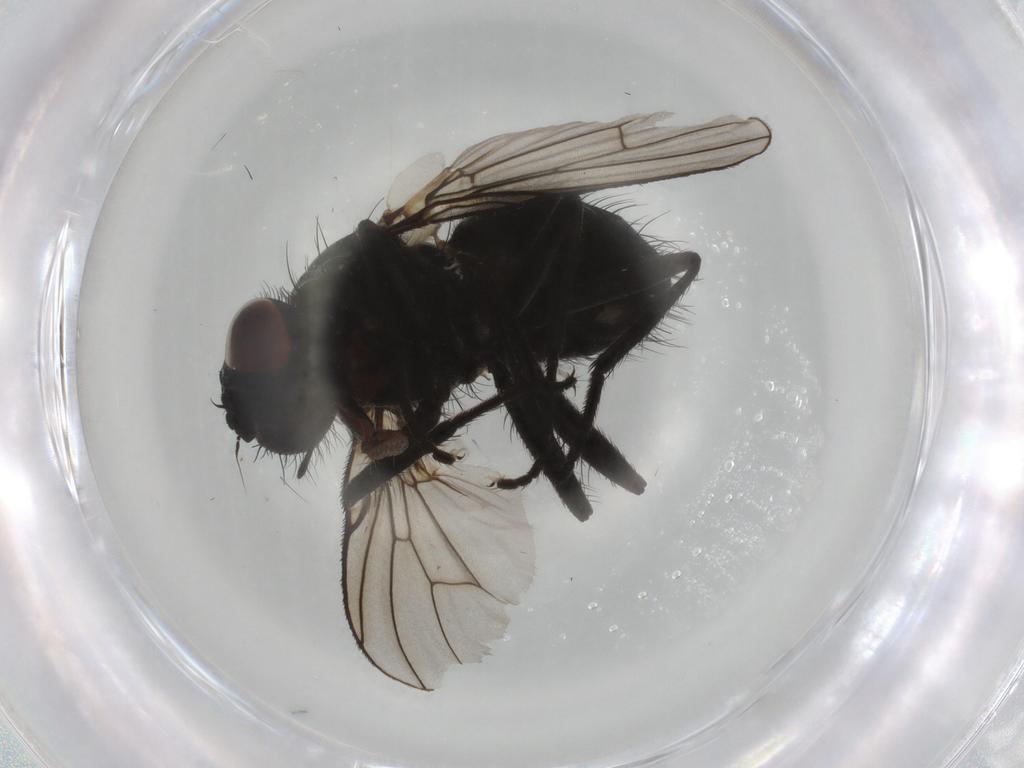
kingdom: Animalia
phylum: Arthropoda
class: Insecta
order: Diptera
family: Muscidae
